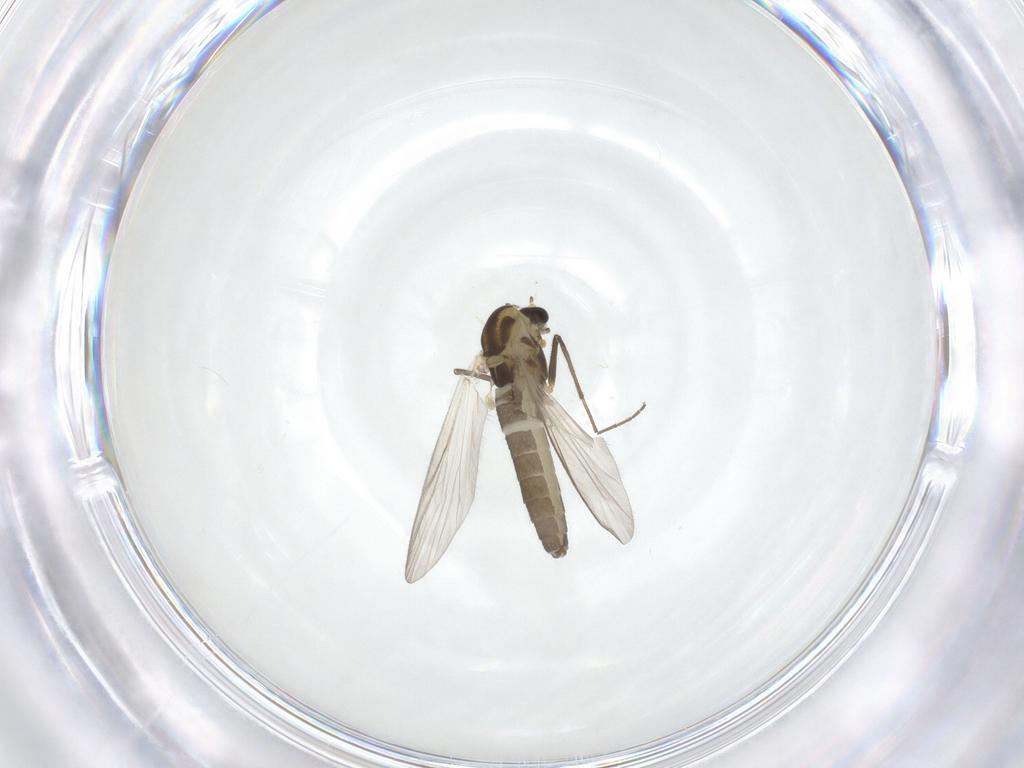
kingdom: Animalia
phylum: Arthropoda
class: Insecta
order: Diptera
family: Chironomidae
